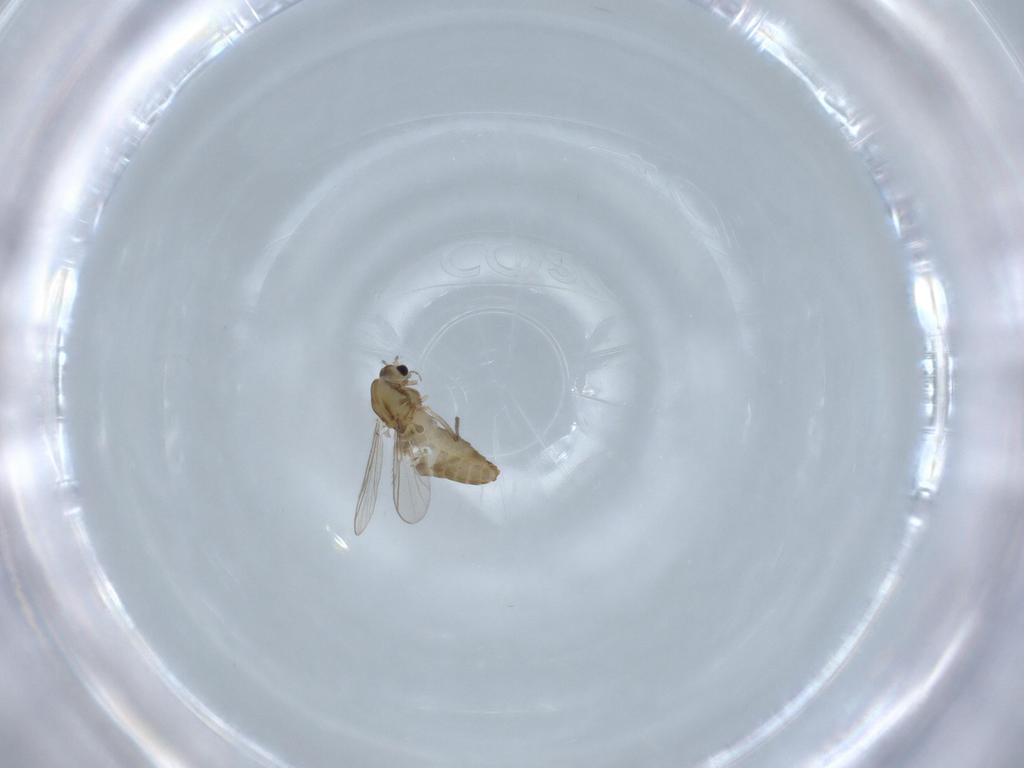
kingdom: Animalia
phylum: Arthropoda
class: Insecta
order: Diptera
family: Chironomidae
